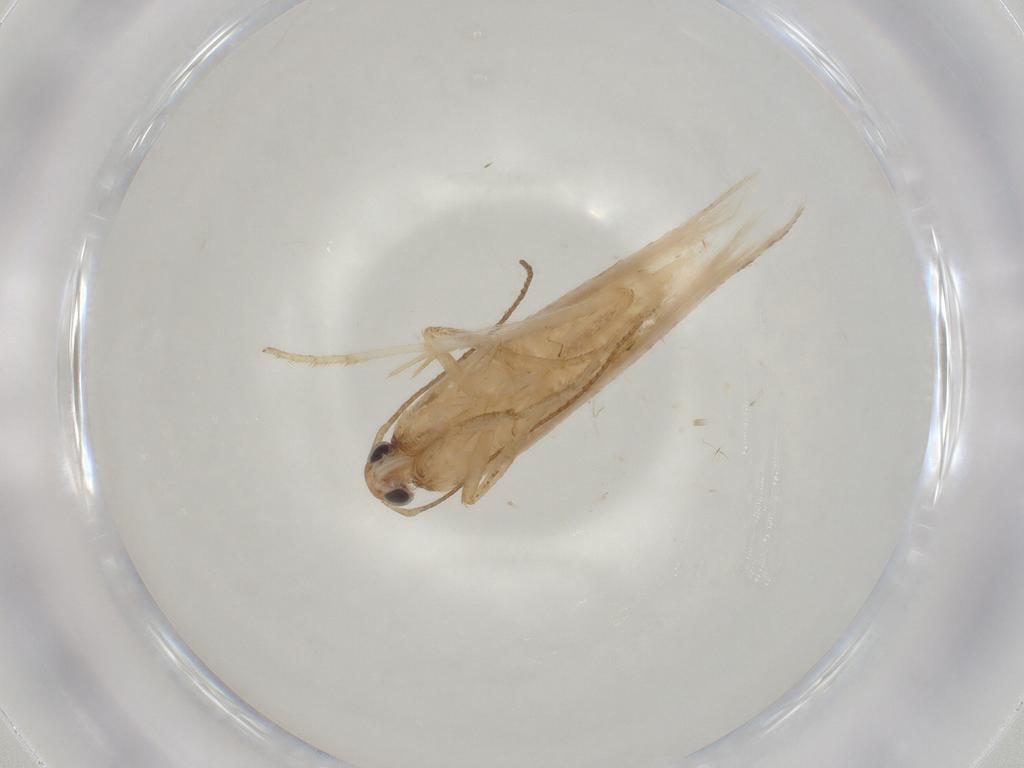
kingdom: Animalia
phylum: Arthropoda
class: Insecta
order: Lepidoptera
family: Gelechiidae
